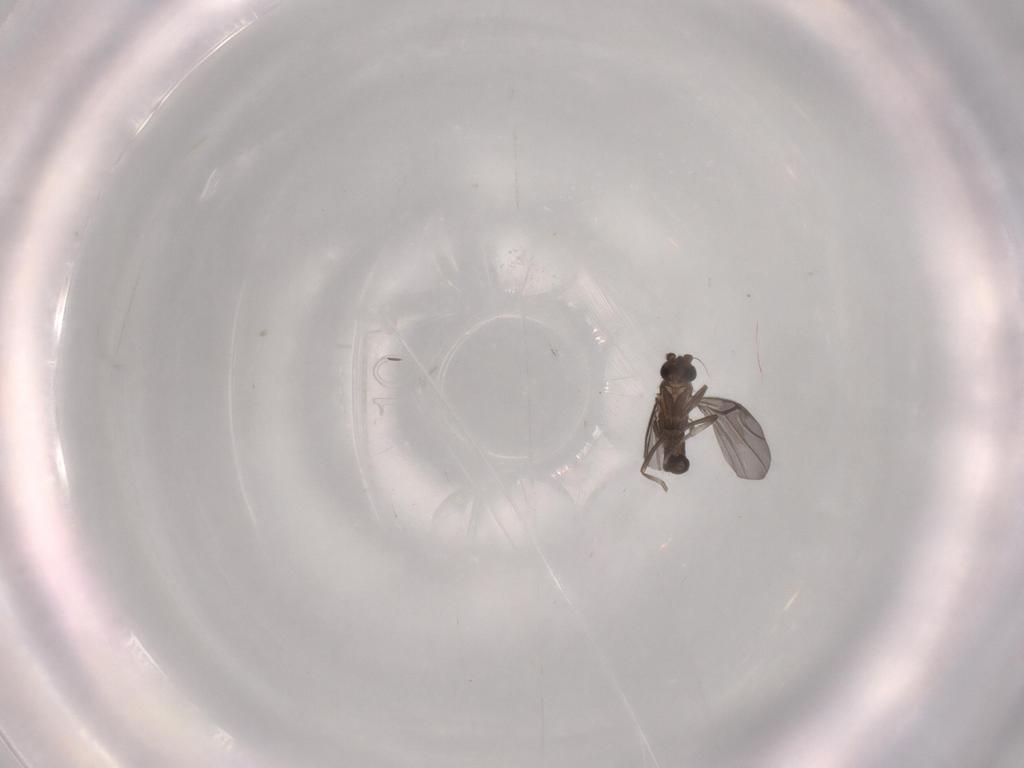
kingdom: Animalia
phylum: Arthropoda
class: Insecta
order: Diptera
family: Phoridae
